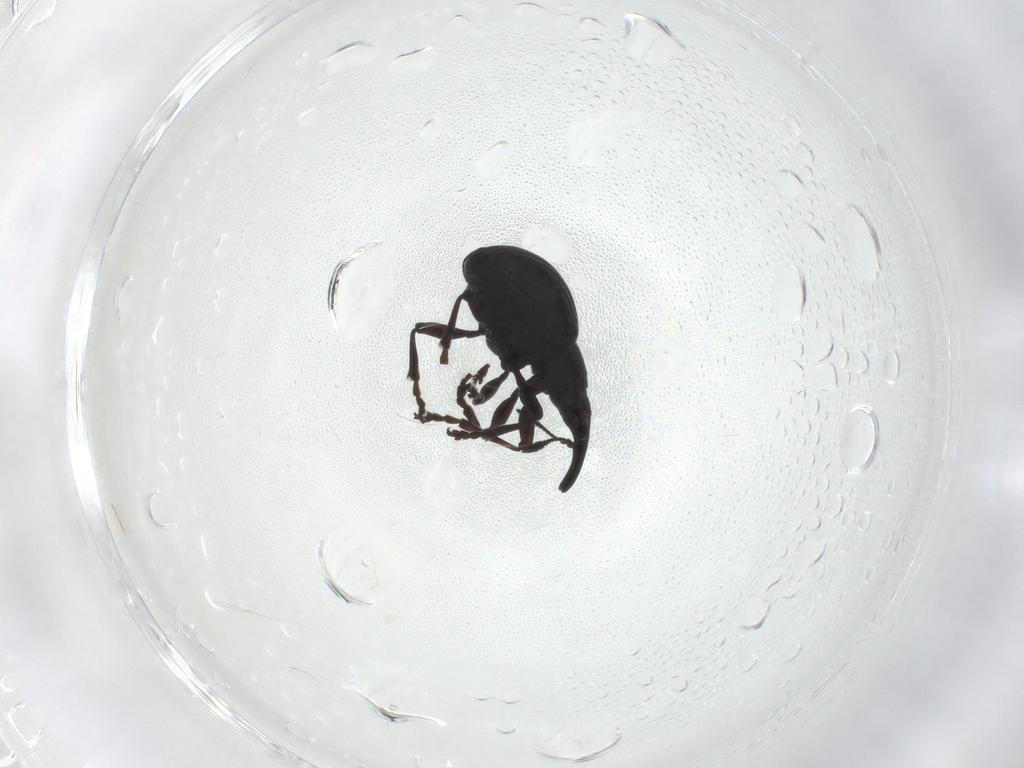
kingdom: Animalia
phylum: Arthropoda
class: Insecta
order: Coleoptera
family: Brentidae
